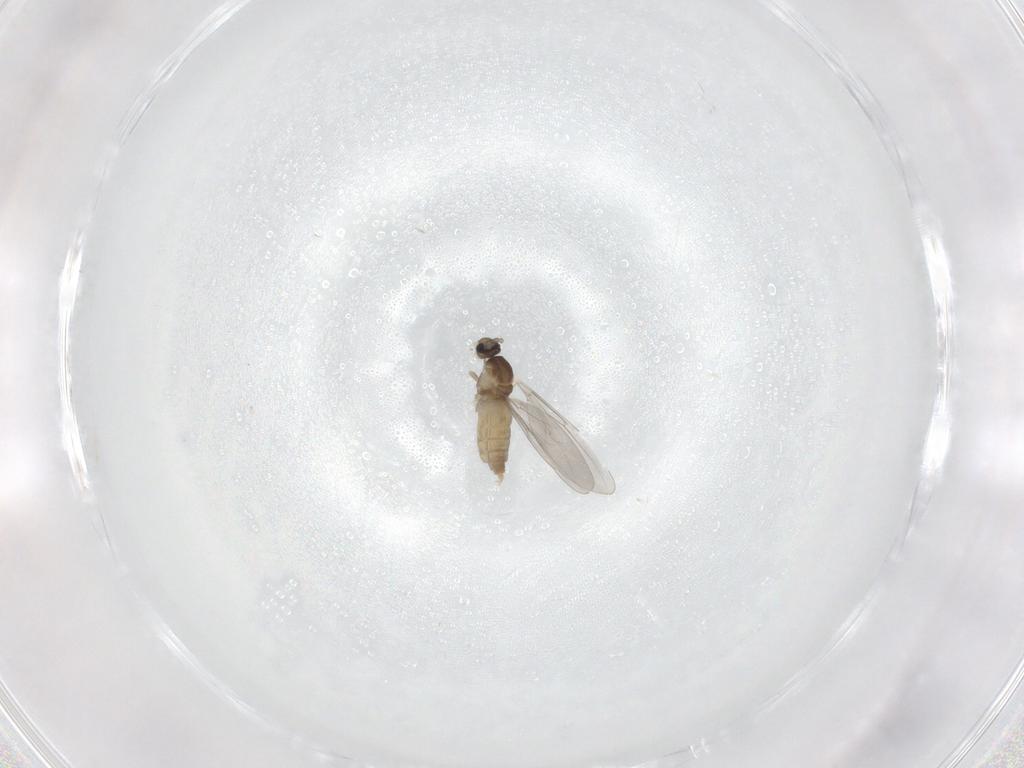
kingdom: Animalia
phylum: Arthropoda
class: Insecta
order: Diptera
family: Cecidomyiidae
